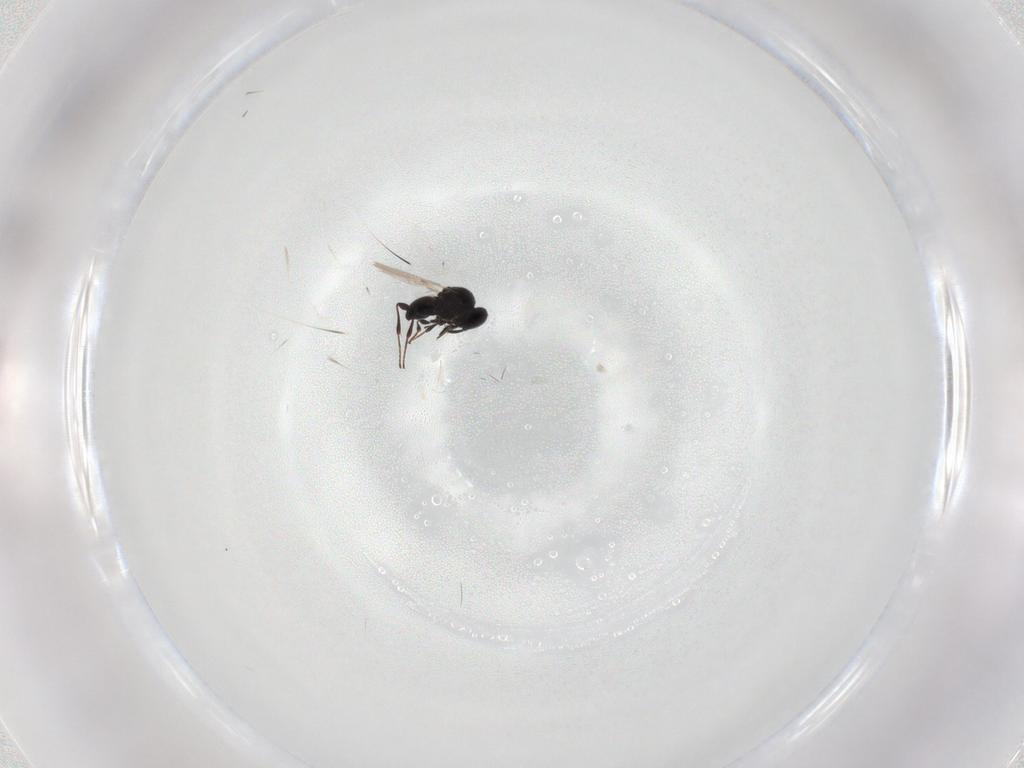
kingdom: Animalia
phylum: Arthropoda
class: Insecta
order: Hymenoptera
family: Platygastridae
